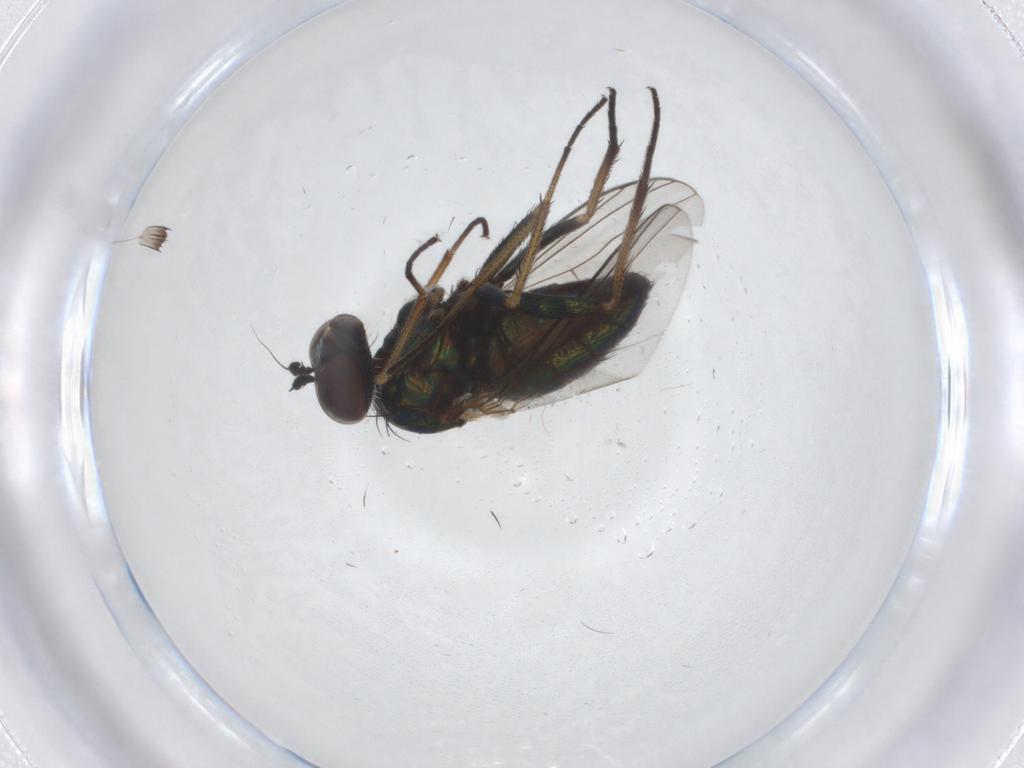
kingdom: Animalia
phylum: Arthropoda
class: Insecta
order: Diptera
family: Dolichopodidae
